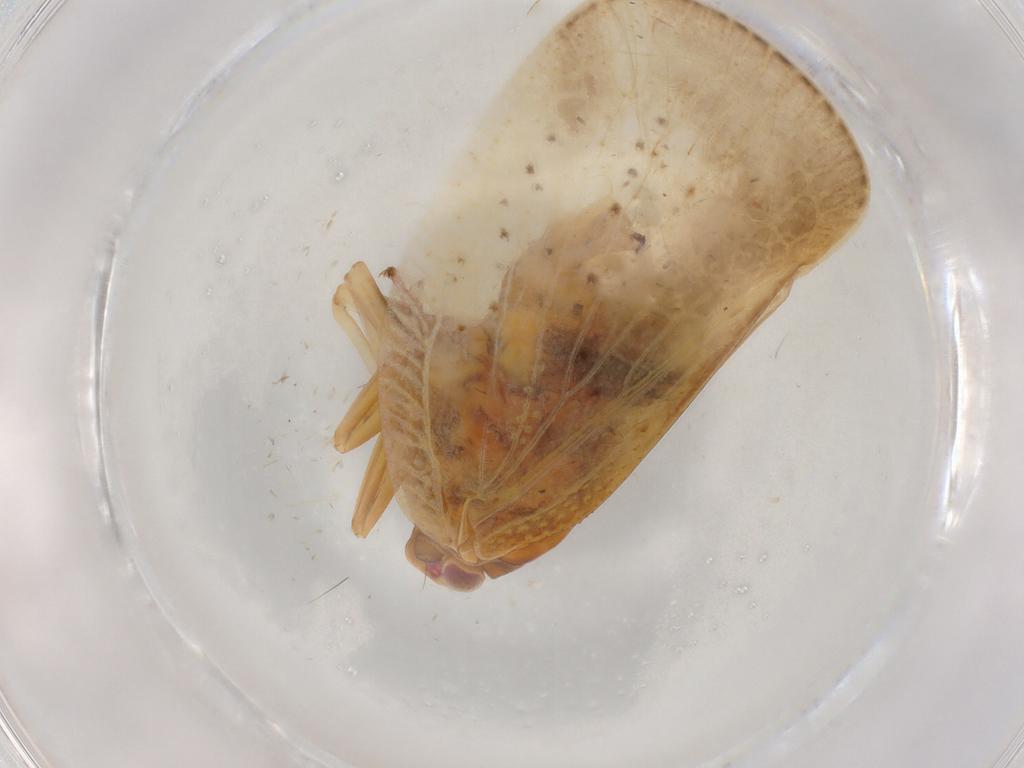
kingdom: Animalia
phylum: Arthropoda
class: Insecta
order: Hemiptera
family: Flatidae
